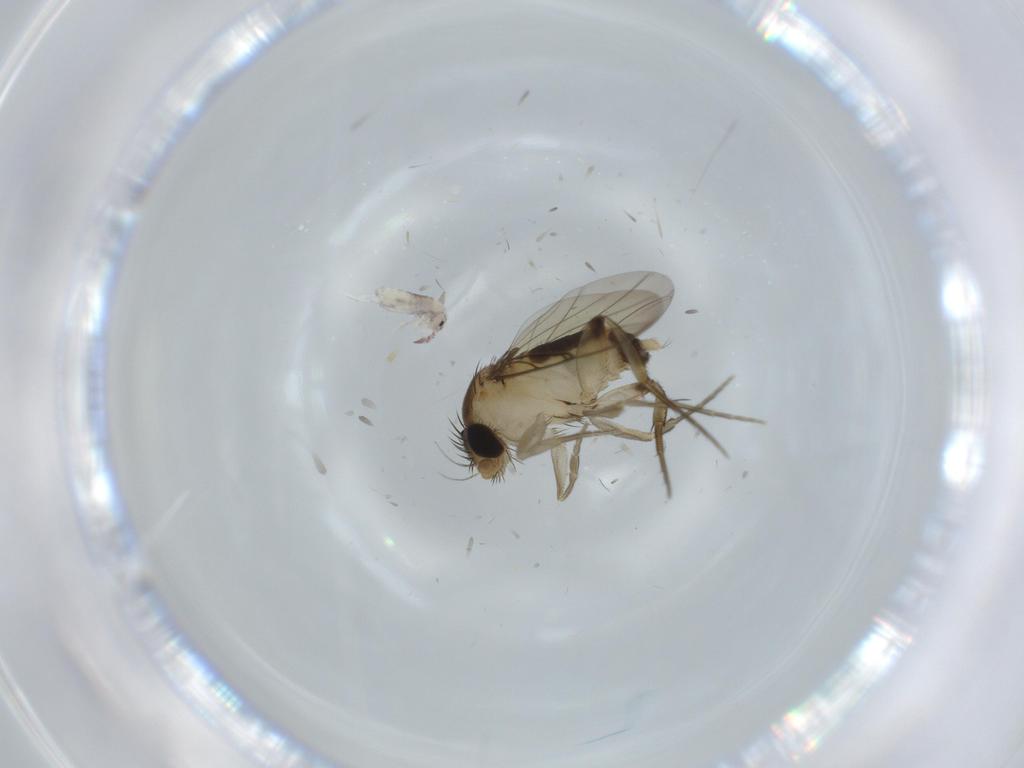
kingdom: Animalia
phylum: Arthropoda
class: Insecta
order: Diptera
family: Phoridae
